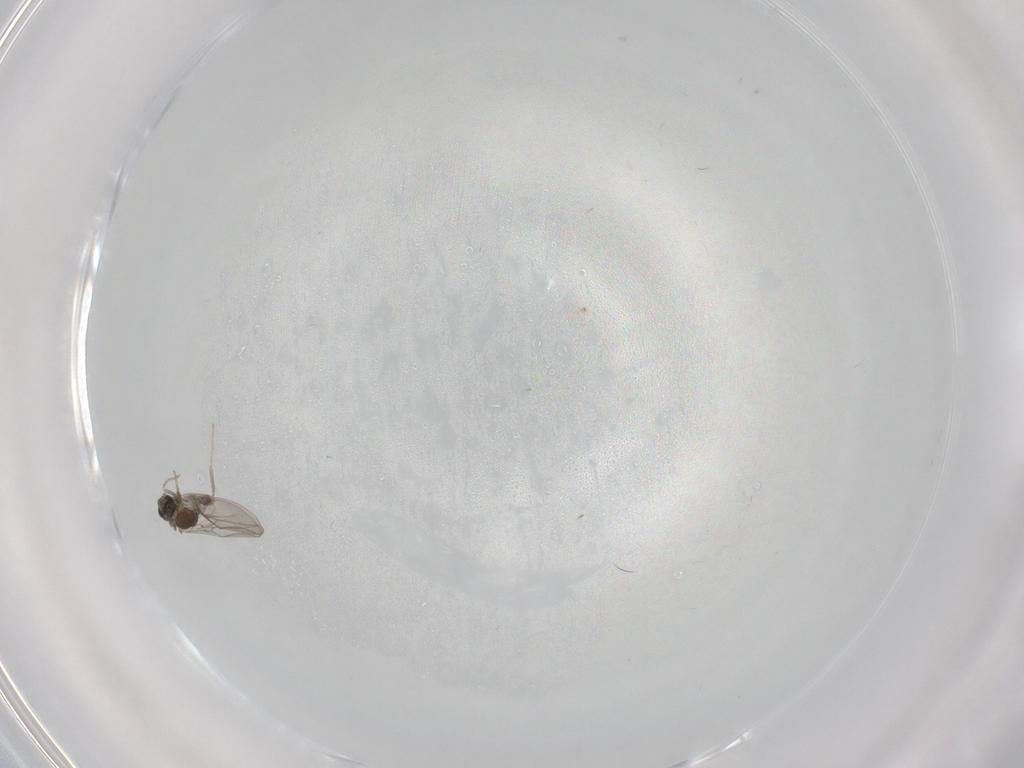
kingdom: Animalia
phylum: Arthropoda
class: Insecta
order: Diptera
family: Cecidomyiidae
